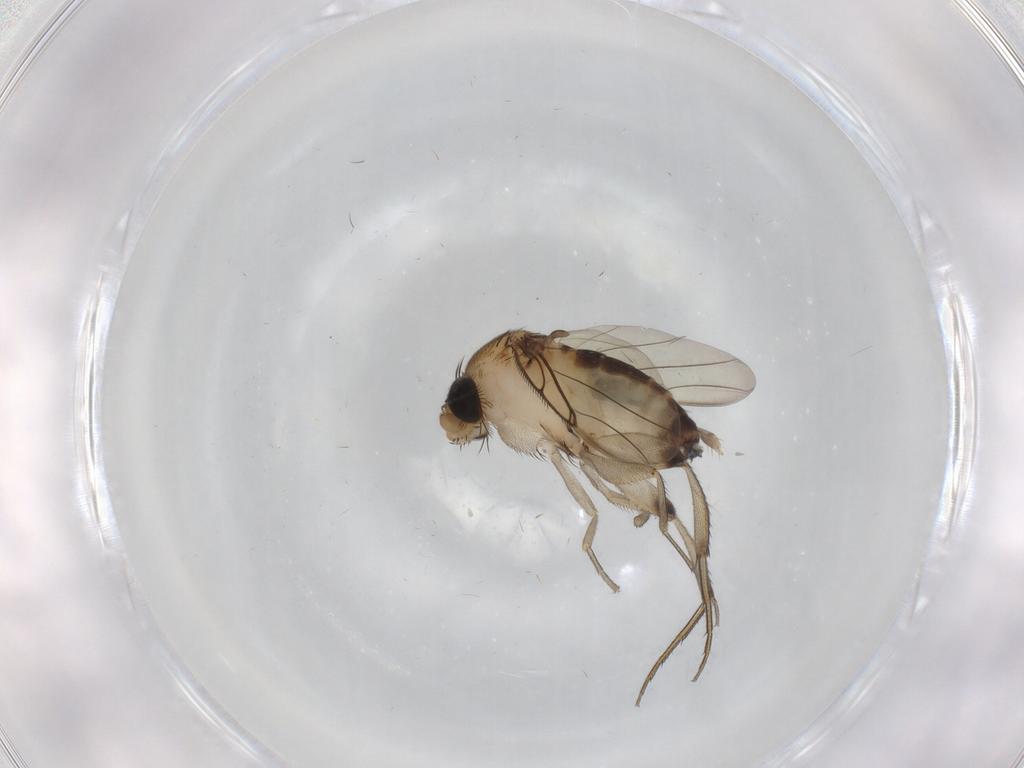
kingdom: Animalia
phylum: Arthropoda
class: Insecta
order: Diptera
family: Phoridae
